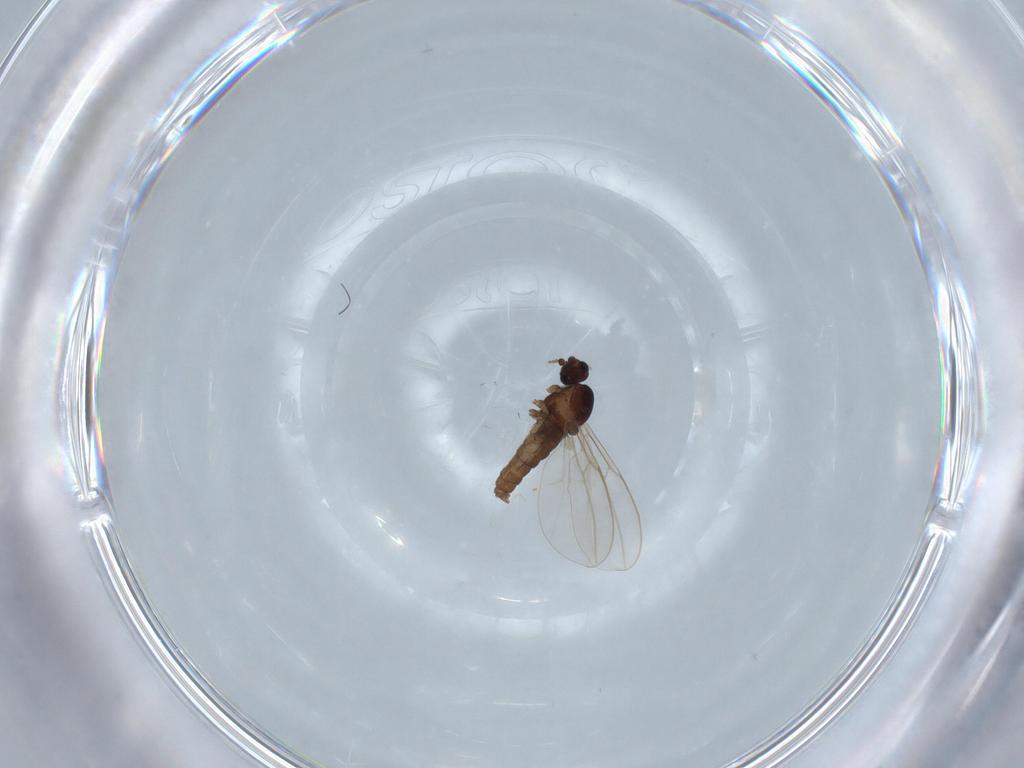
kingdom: Animalia
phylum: Arthropoda
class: Insecta
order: Diptera
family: Cecidomyiidae
